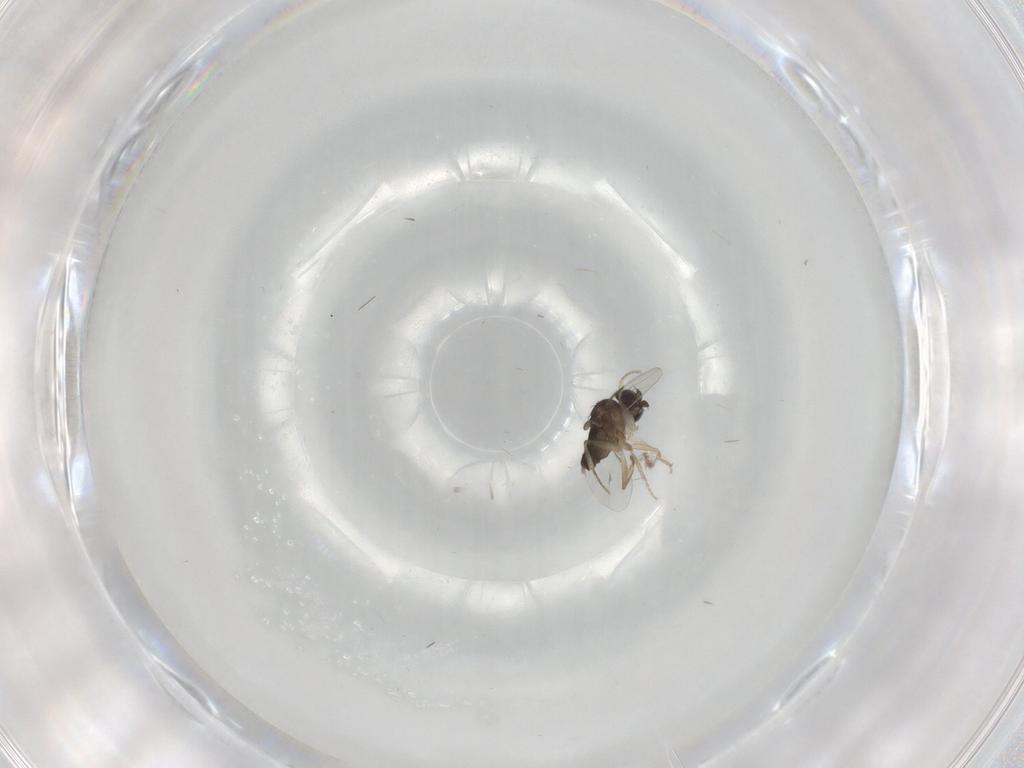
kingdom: Animalia
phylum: Arthropoda
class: Insecta
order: Diptera
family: Phoridae
